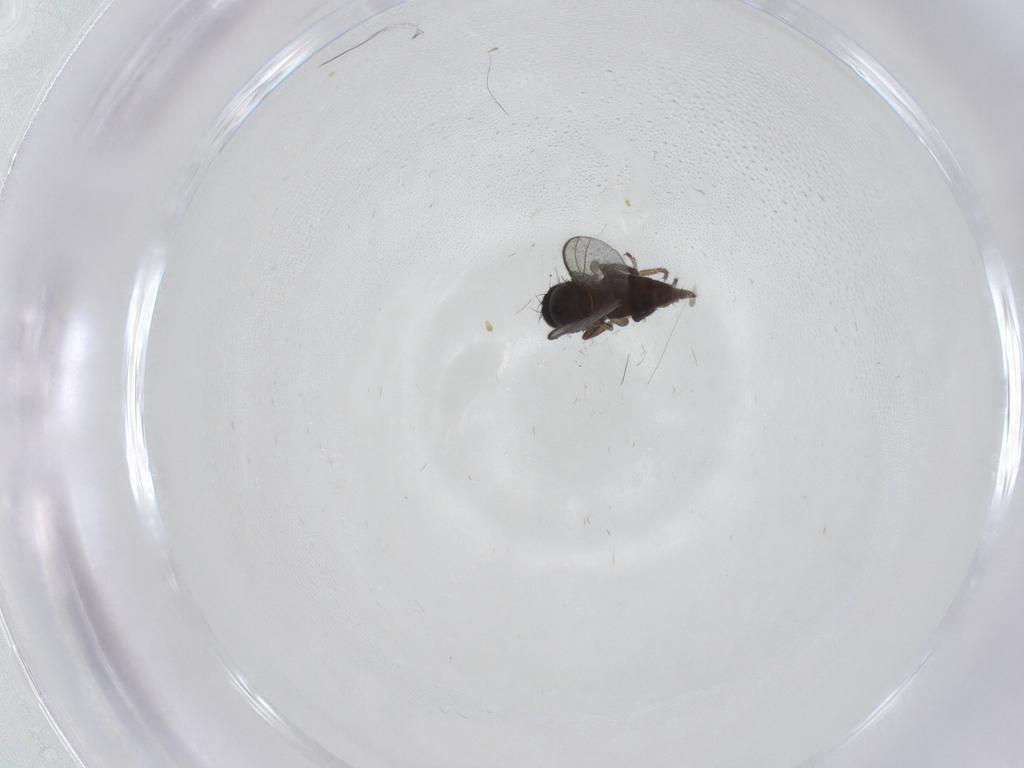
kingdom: Animalia
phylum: Arthropoda
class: Insecta
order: Diptera
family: Milichiidae
